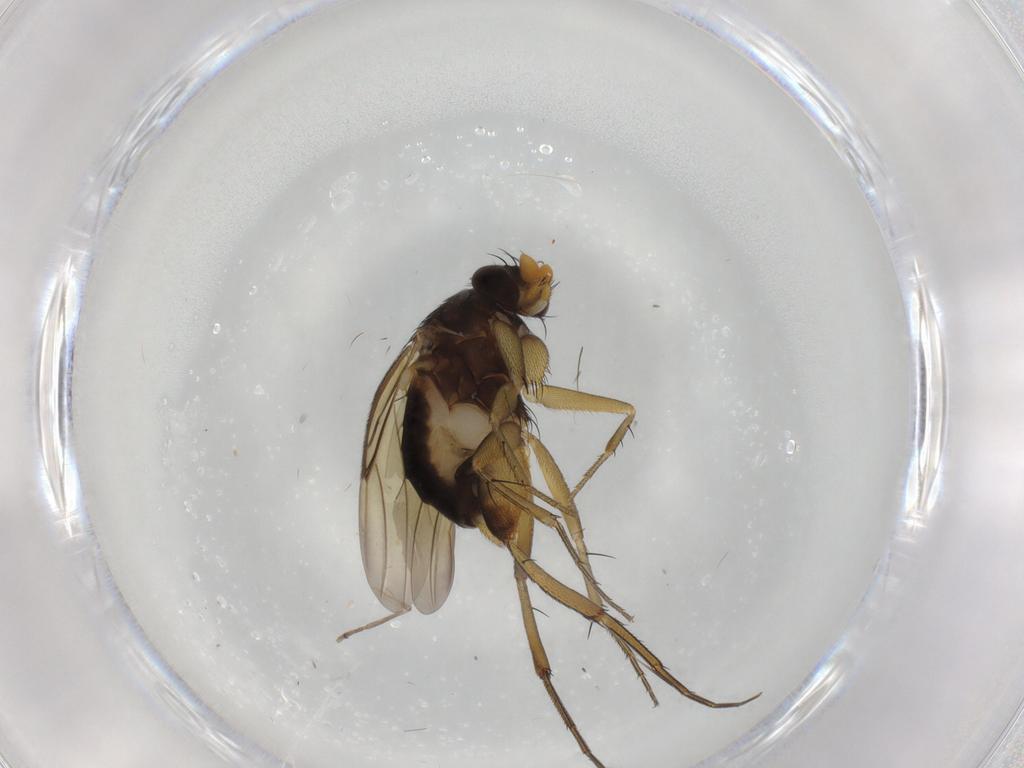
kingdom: Animalia
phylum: Arthropoda
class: Insecta
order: Diptera
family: Phoridae
